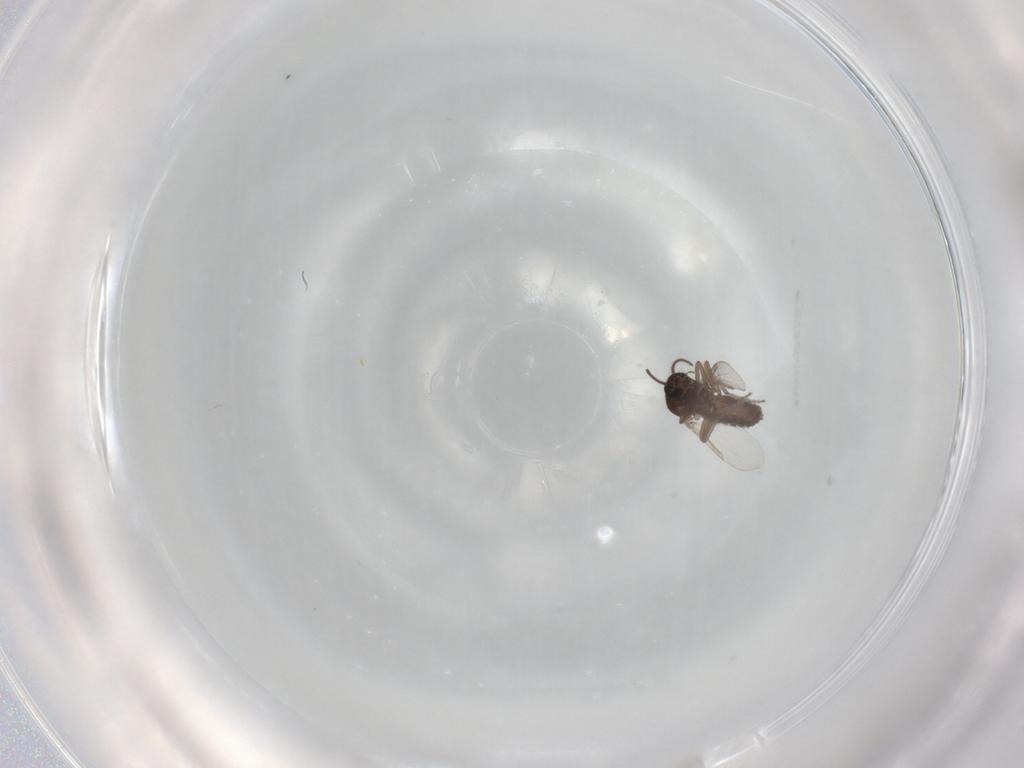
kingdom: Animalia
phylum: Arthropoda
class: Insecta
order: Diptera
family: Ceratopogonidae
